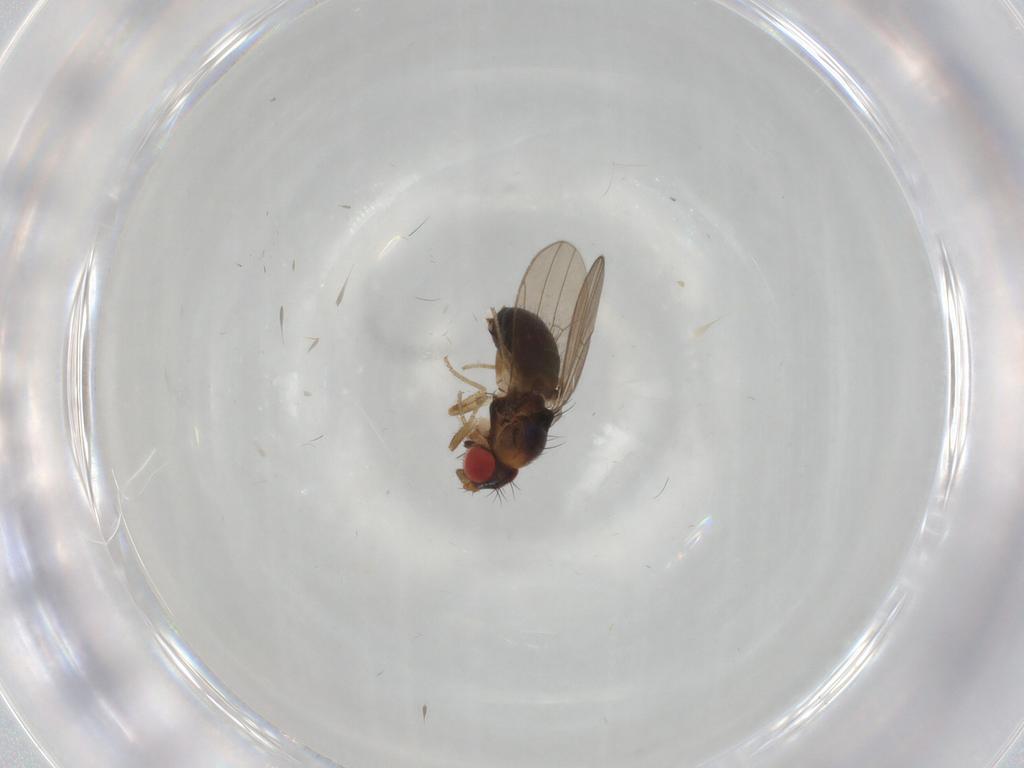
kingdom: Animalia
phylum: Arthropoda
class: Insecta
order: Diptera
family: Drosophilidae
